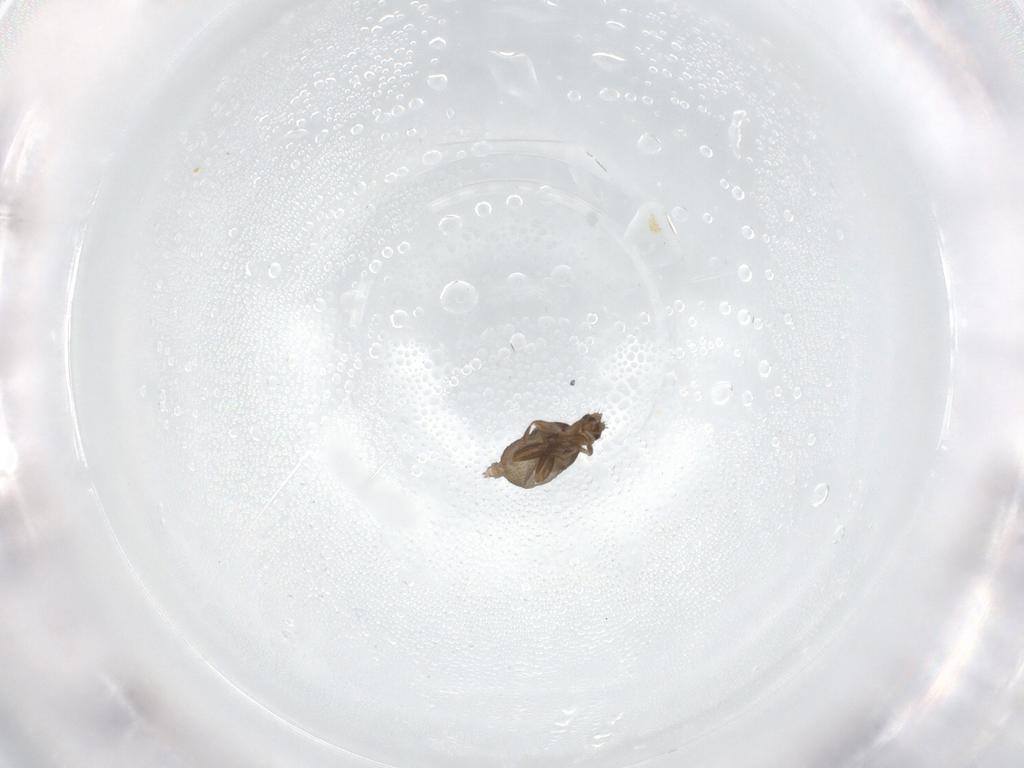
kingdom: Animalia
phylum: Arthropoda
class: Insecta
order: Diptera
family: Phoridae
